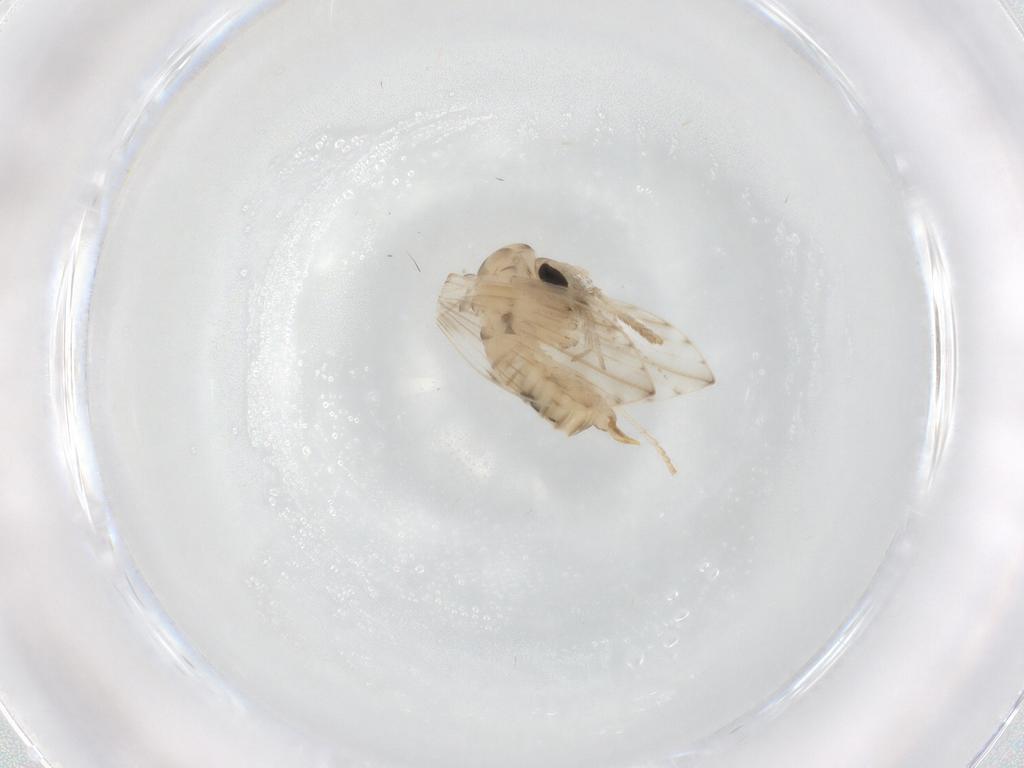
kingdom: Animalia
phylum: Arthropoda
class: Insecta
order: Diptera
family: Sphaeroceridae
